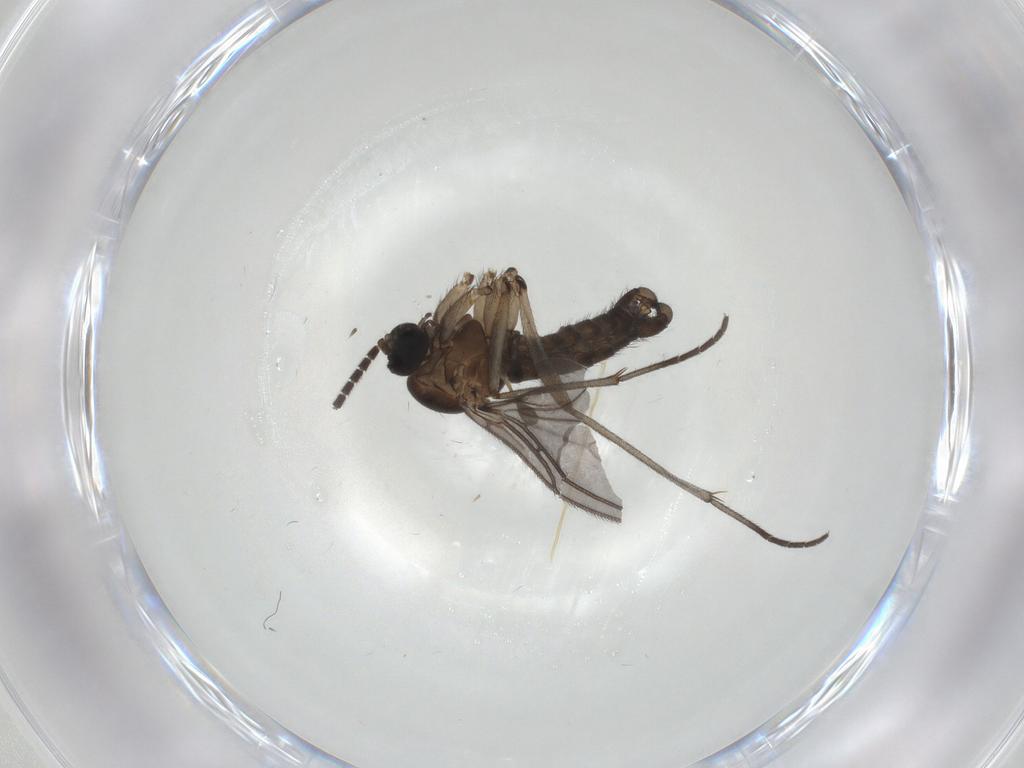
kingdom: Animalia
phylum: Arthropoda
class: Insecta
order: Diptera
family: Sciaridae
